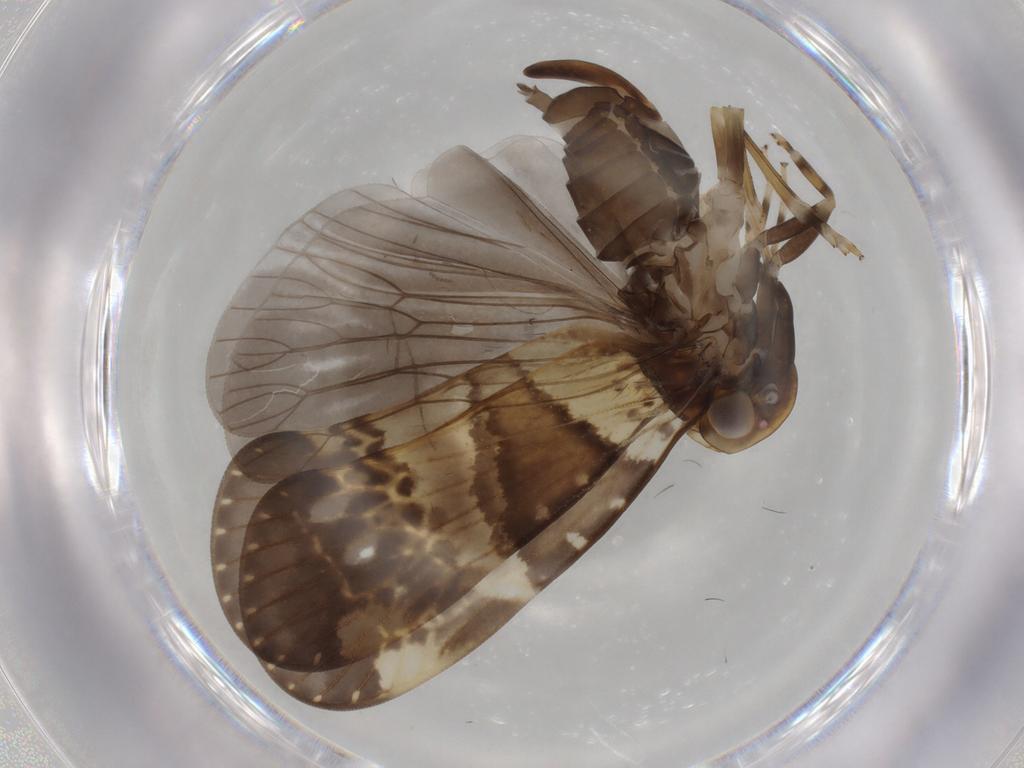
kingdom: Animalia
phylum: Arthropoda
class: Insecta
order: Hemiptera
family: Cixiidae
